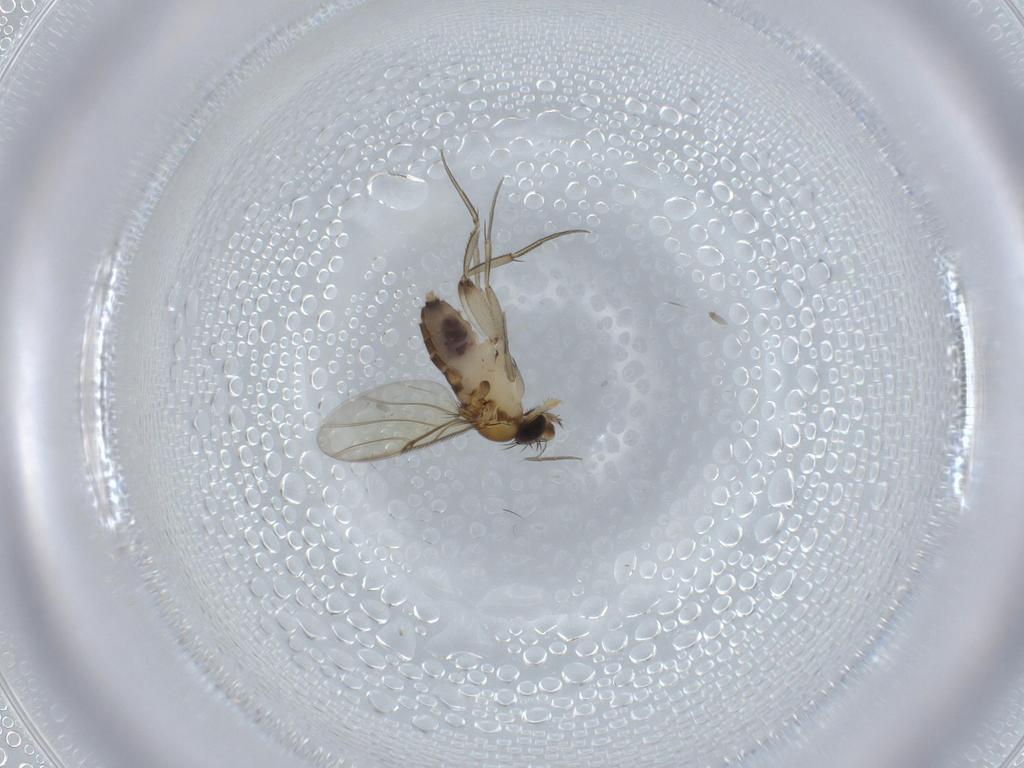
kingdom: Animalia
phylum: Arthropoda
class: Insecta
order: Diptera
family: Phoridae
